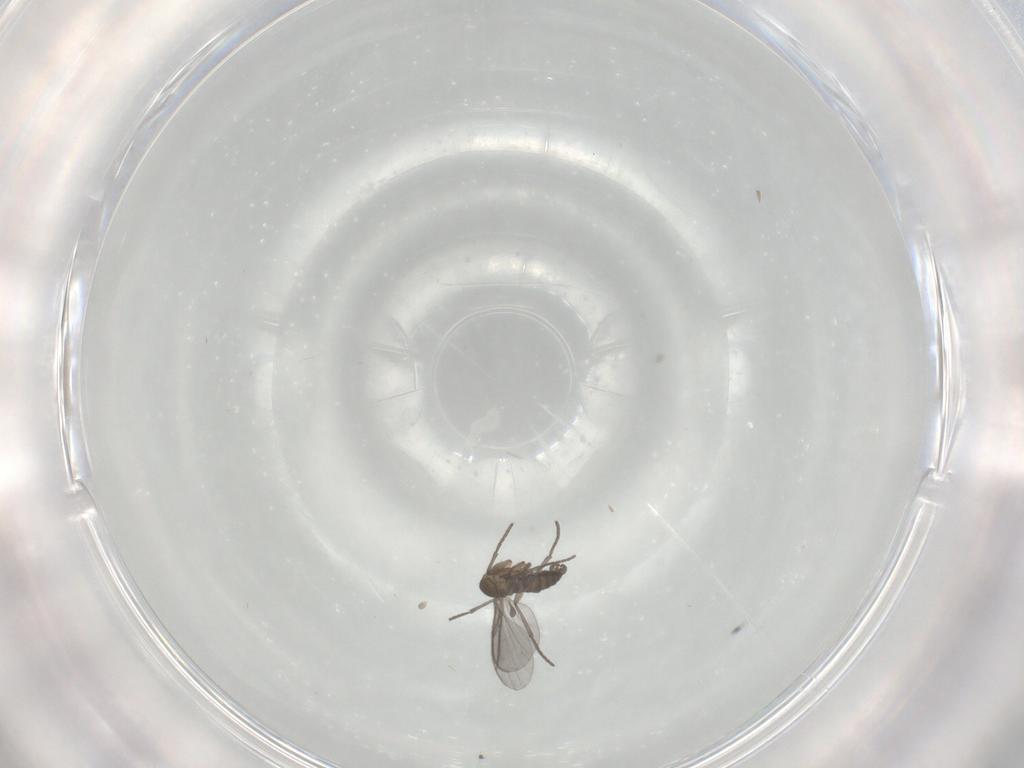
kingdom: Animalia
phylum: Arthropoda
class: Insecta
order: Diptera
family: Sciaridae
